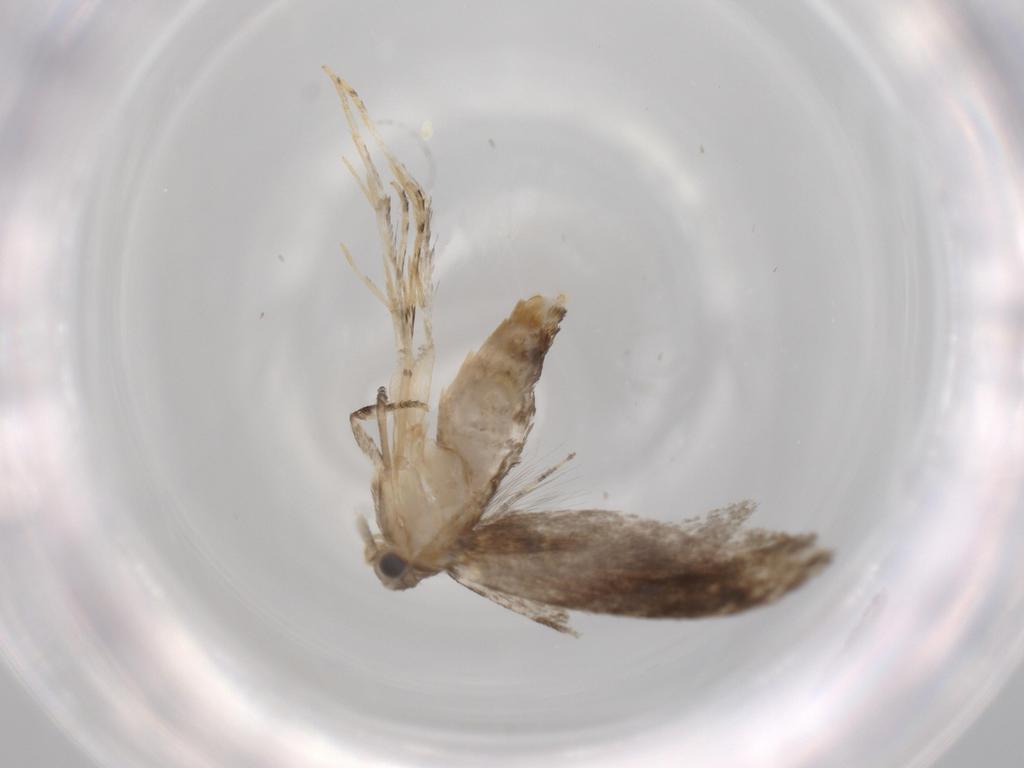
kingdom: Animalia
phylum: Arthropoda
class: Insecta
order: Lepidoptera
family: Tineidae
